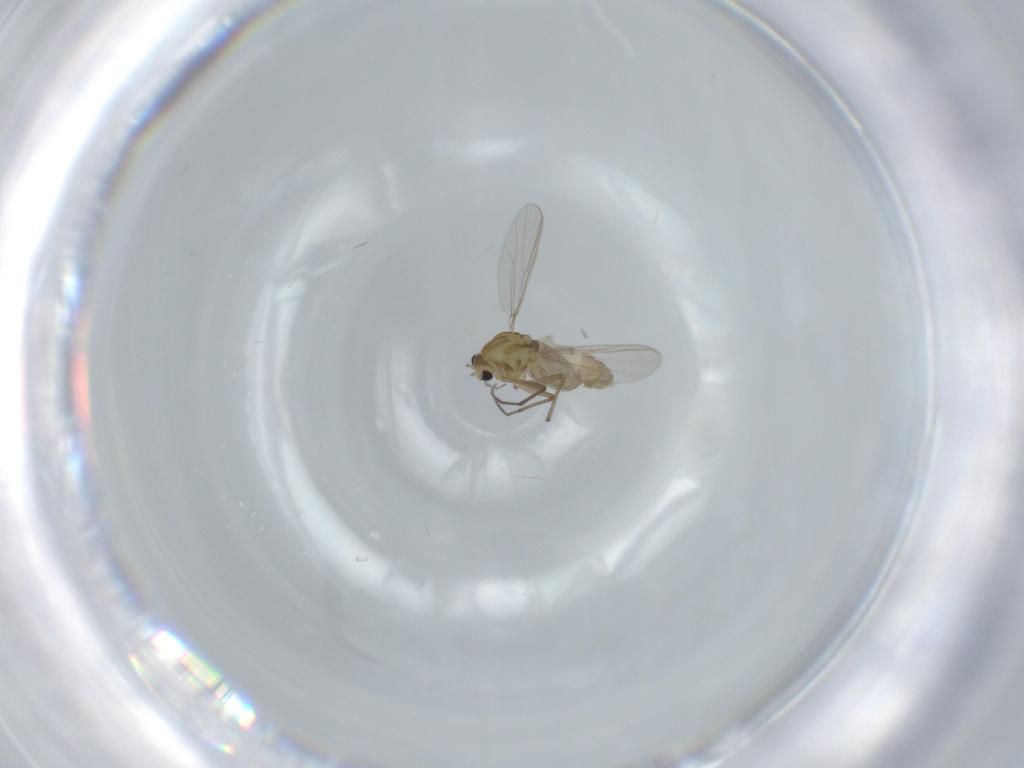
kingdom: Animalia
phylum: Arthropoda
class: Insecta
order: Diptera
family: Chironomidae
